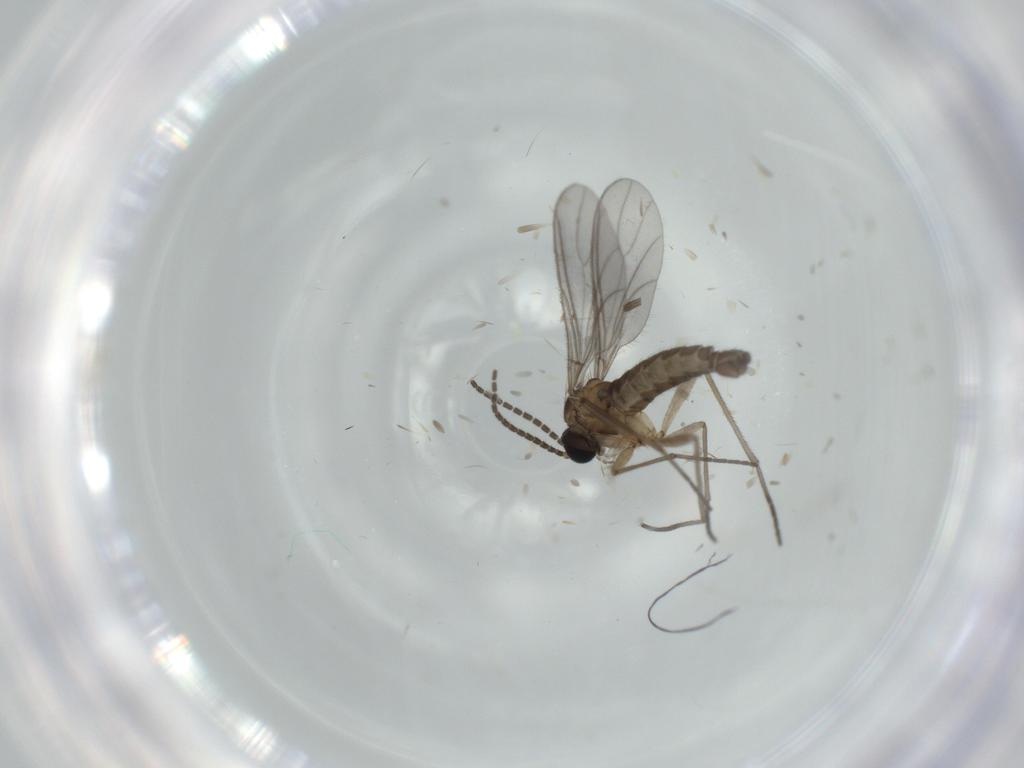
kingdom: Animalia
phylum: Arthropoda
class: Insecta
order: Diptera
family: Sciaridae
